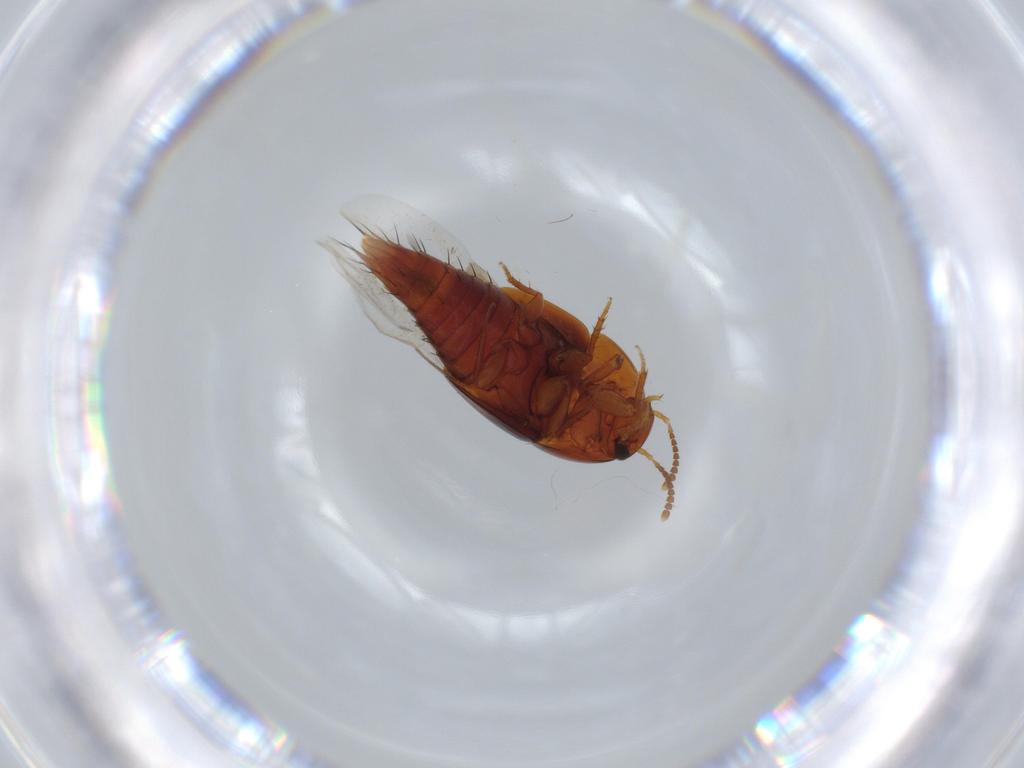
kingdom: Animalia
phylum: Arthropoda
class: Insecta
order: Coleoptera
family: Staphylinidae
